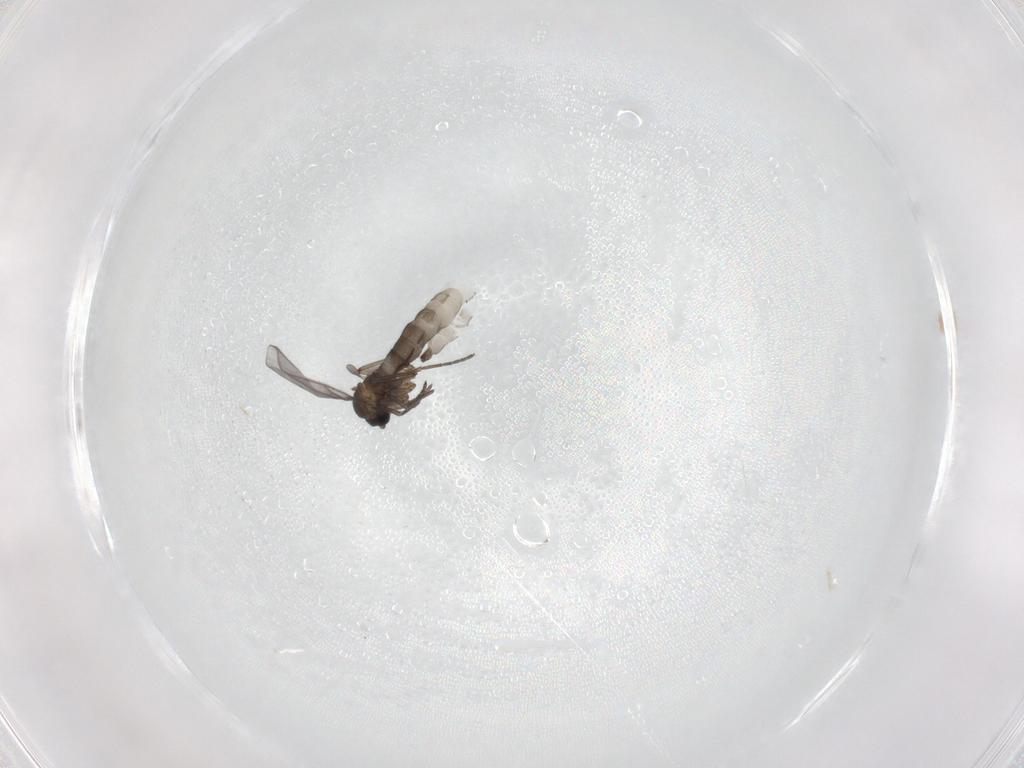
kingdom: Animalia
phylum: Arthropoda
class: Insecta
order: Diptera
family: Sciaridae
